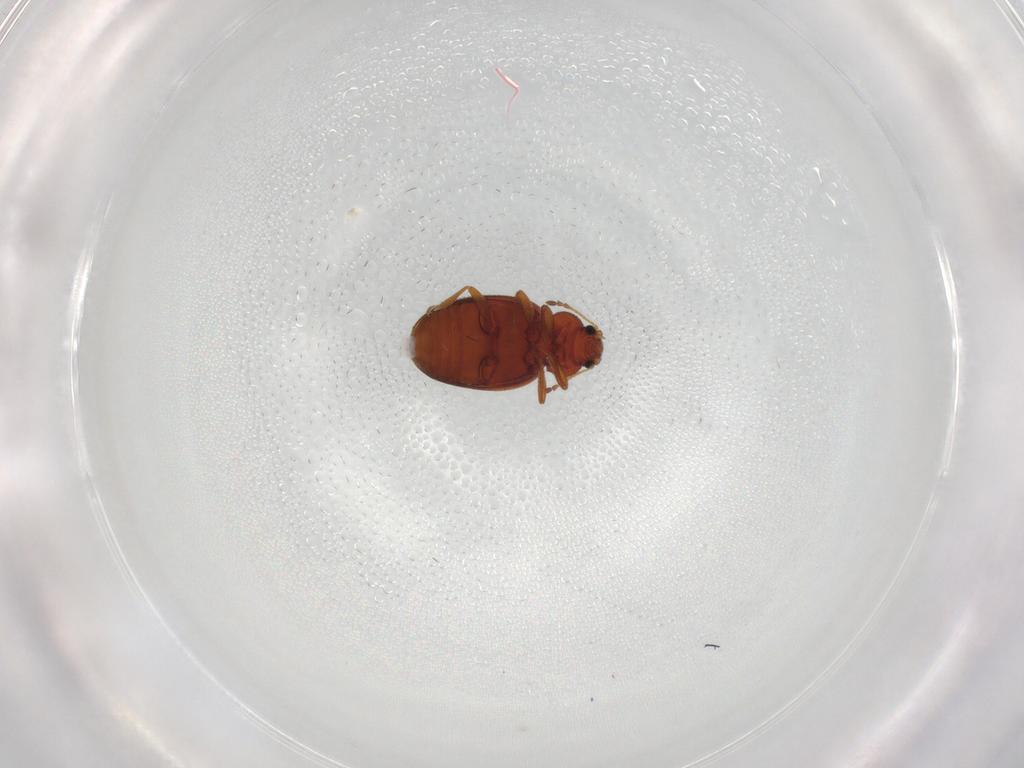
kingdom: Animalia
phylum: Arthropoda
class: Insecta
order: Coleoptera
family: Latridiidae
